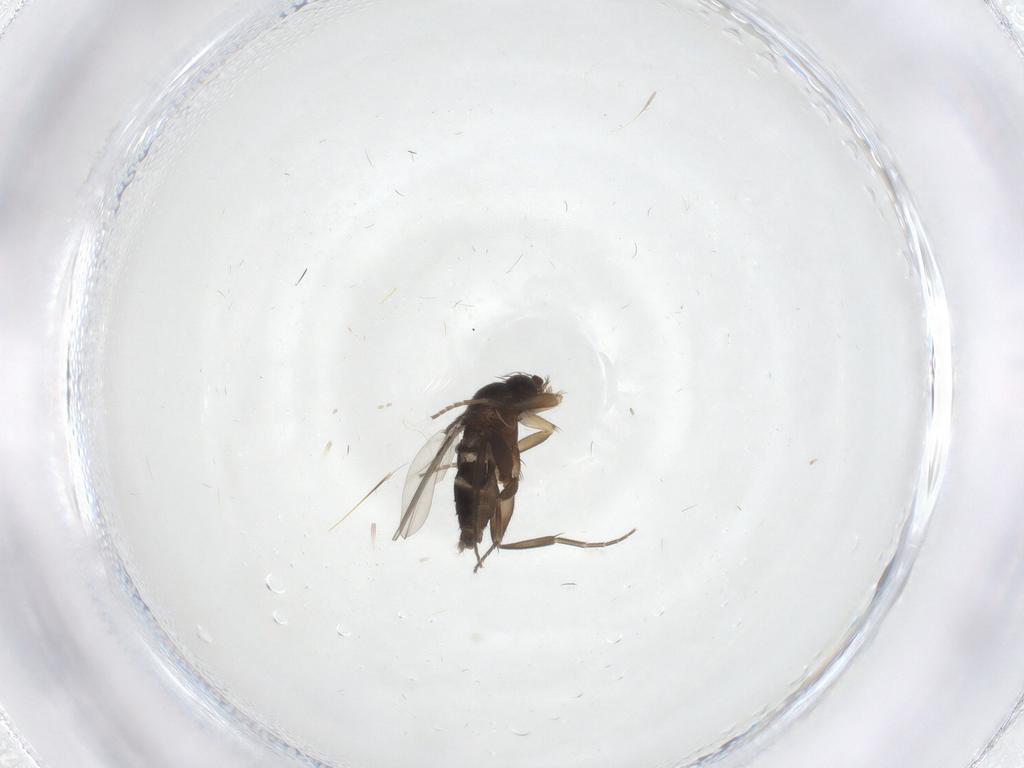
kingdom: Animalia
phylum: Arthropoda
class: Insecta
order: Diptera
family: Phoridae
